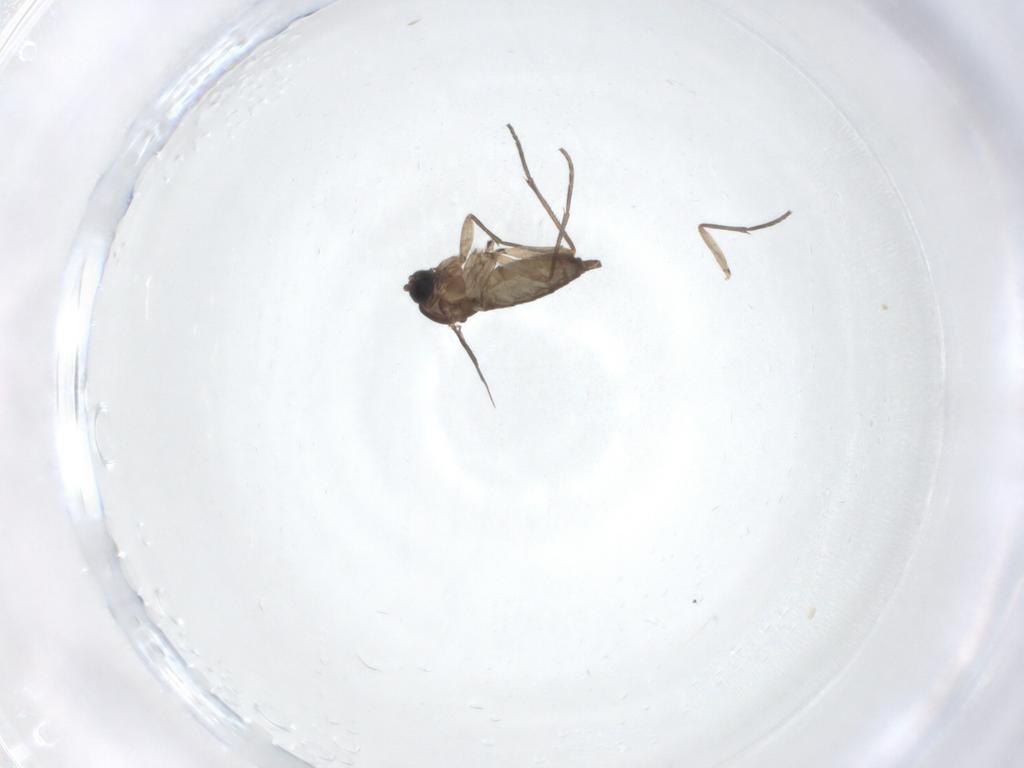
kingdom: Animalia
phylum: Arthropoda
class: Insecta
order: Diptera
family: Sciaridae
